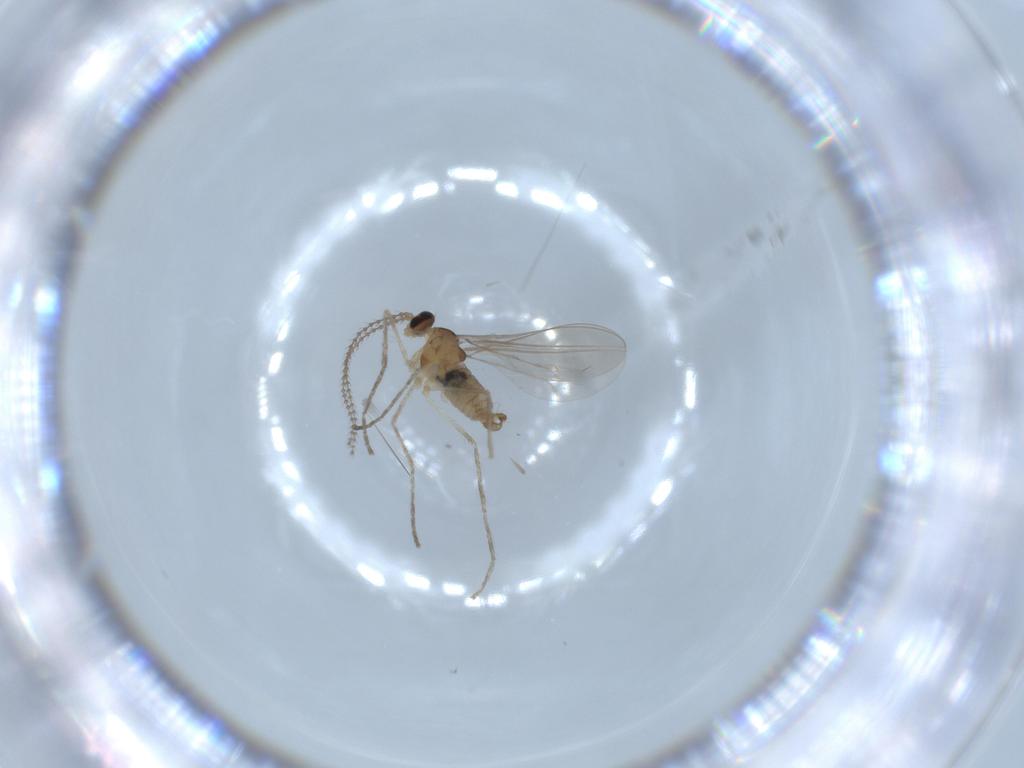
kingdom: Animalia
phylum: Arthropoda
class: Insecta
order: Diptera
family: Cecidomyiidae
